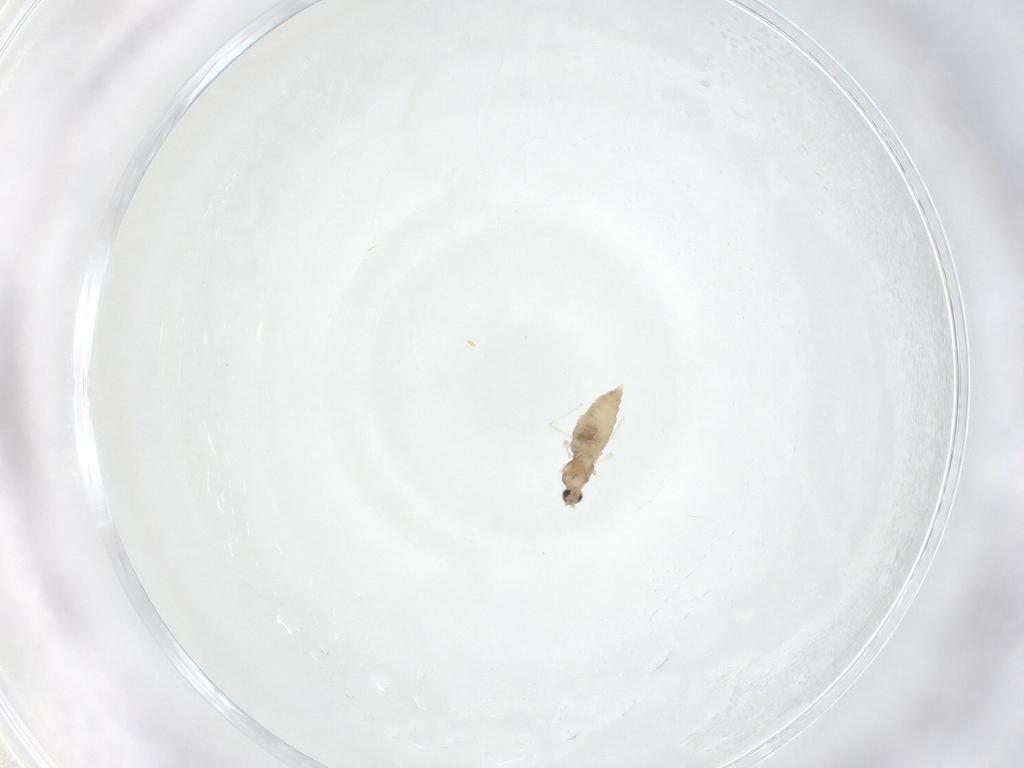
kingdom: Animalia
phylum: Arthropoda
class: Insecta
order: Diptera
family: Cecidomyiidae
